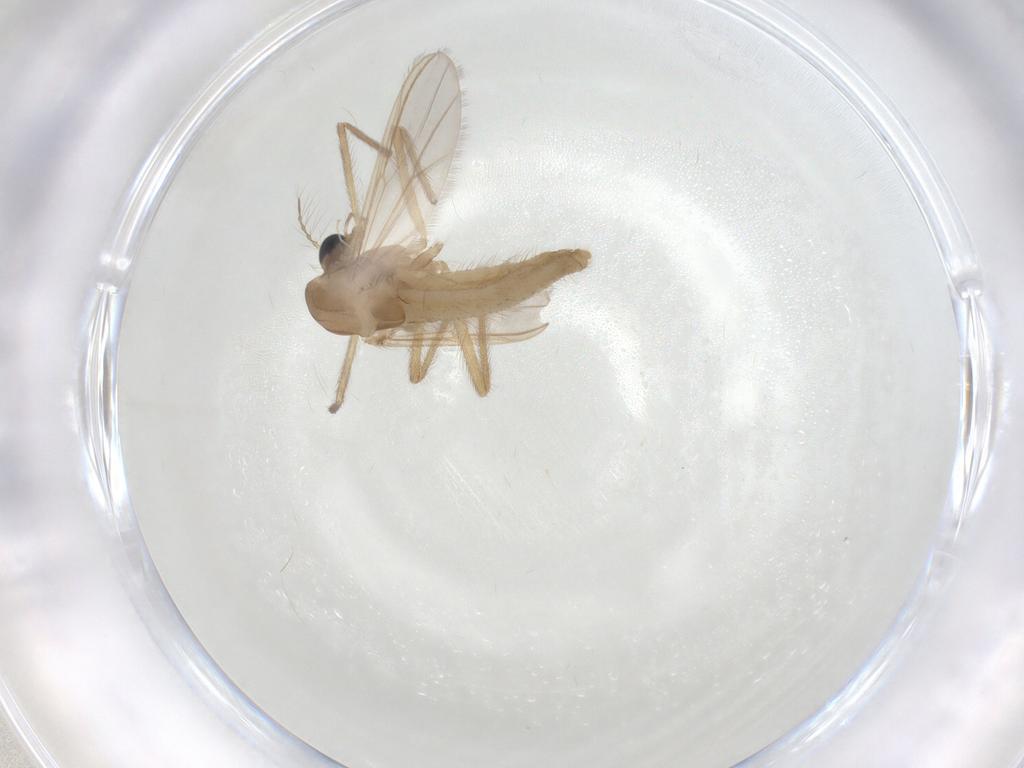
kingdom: Animalia
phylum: Arthropoda
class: Insecta
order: Diptera
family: Chironomidae
